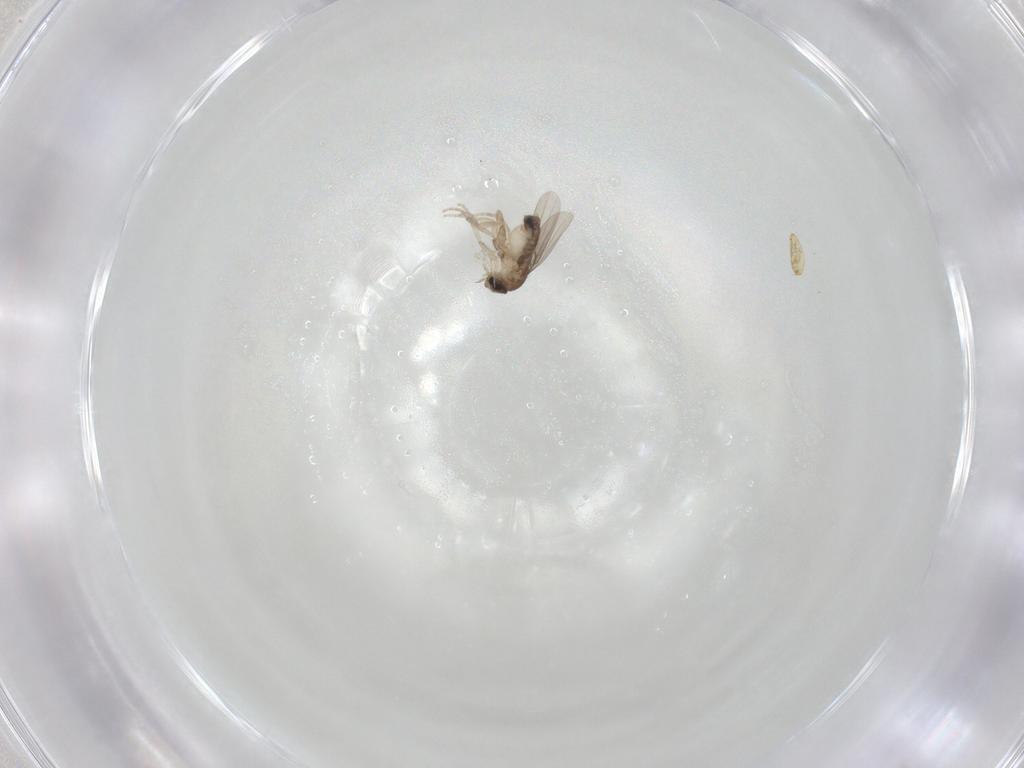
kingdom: Animalia
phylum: Arthropoda
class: Insecta
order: Diptera
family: Phoridae
